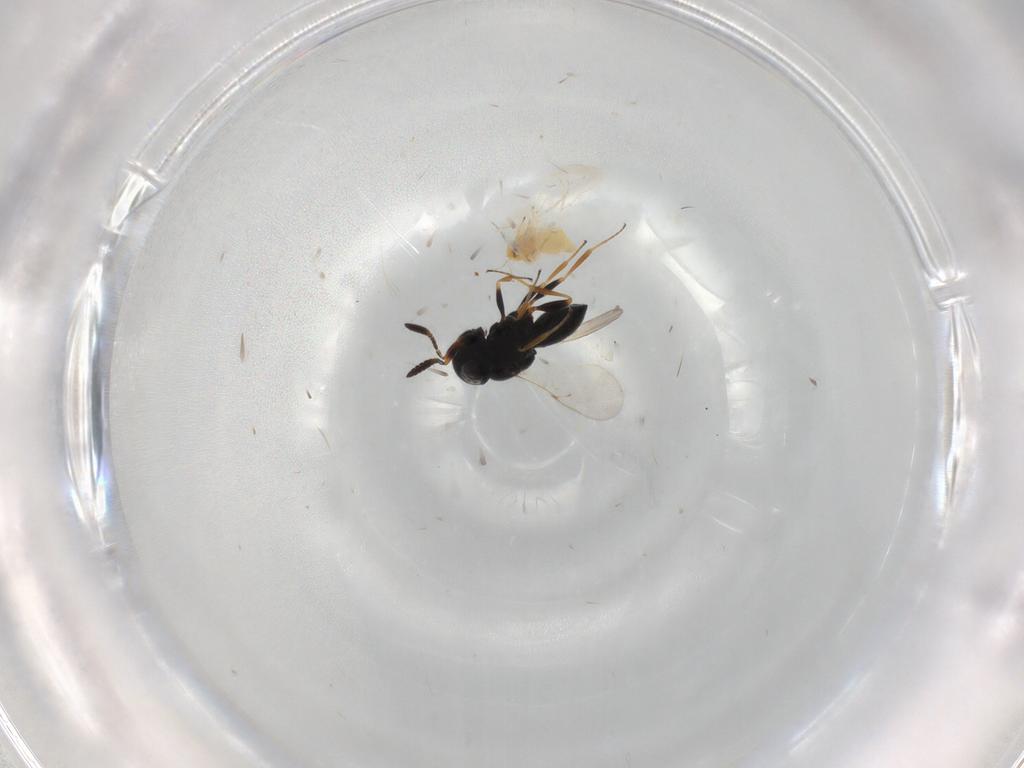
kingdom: Animalia
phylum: Arthropoda
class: Insecta
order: Coleoptera
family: Curculionidae
